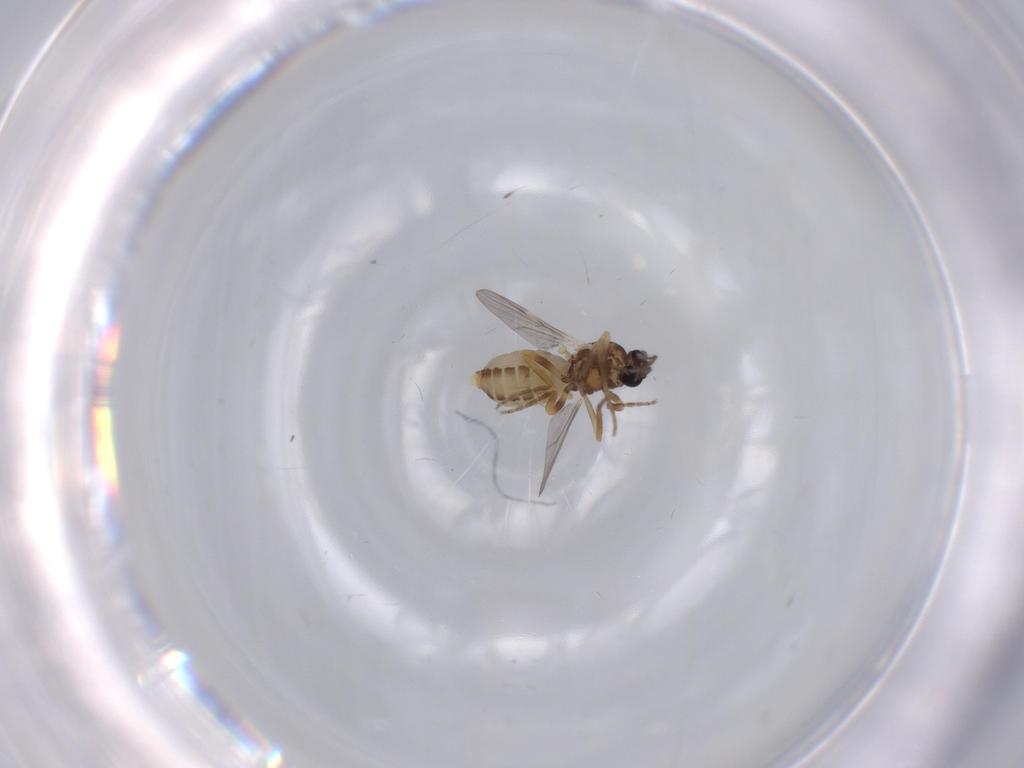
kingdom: Animalia
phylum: Arthropoda
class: Insecta
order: Diptera
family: Ceratopogonidae
